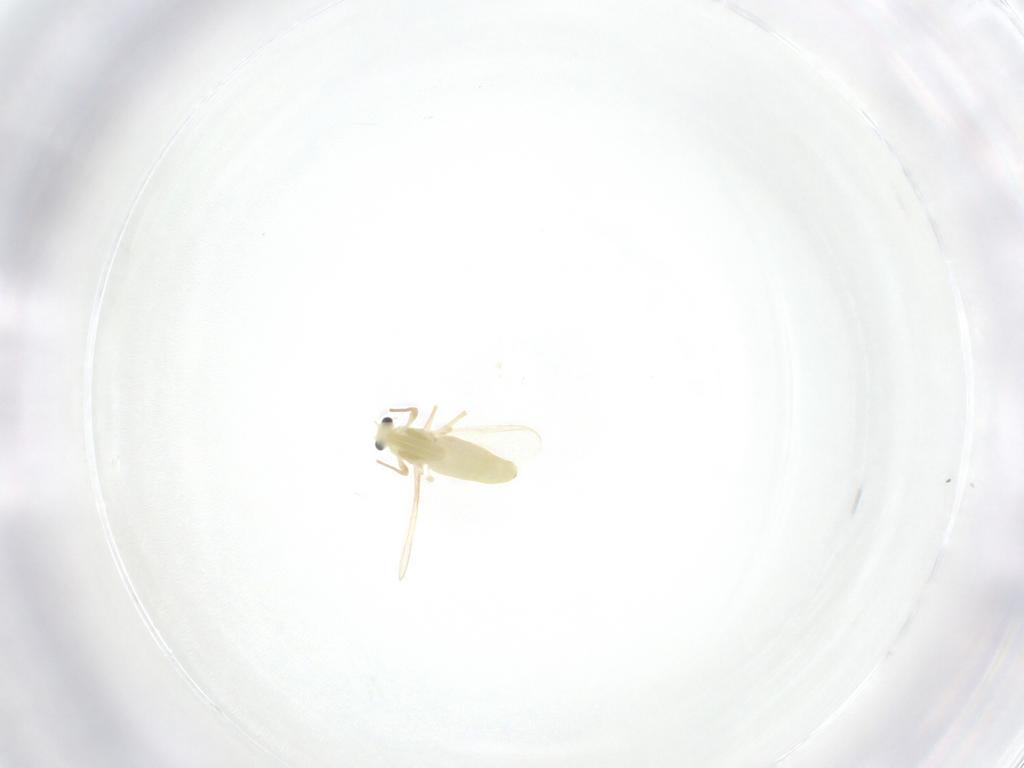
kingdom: Animalia
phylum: Arthropoda
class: Insecta
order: Diptera
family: Chironomidae
